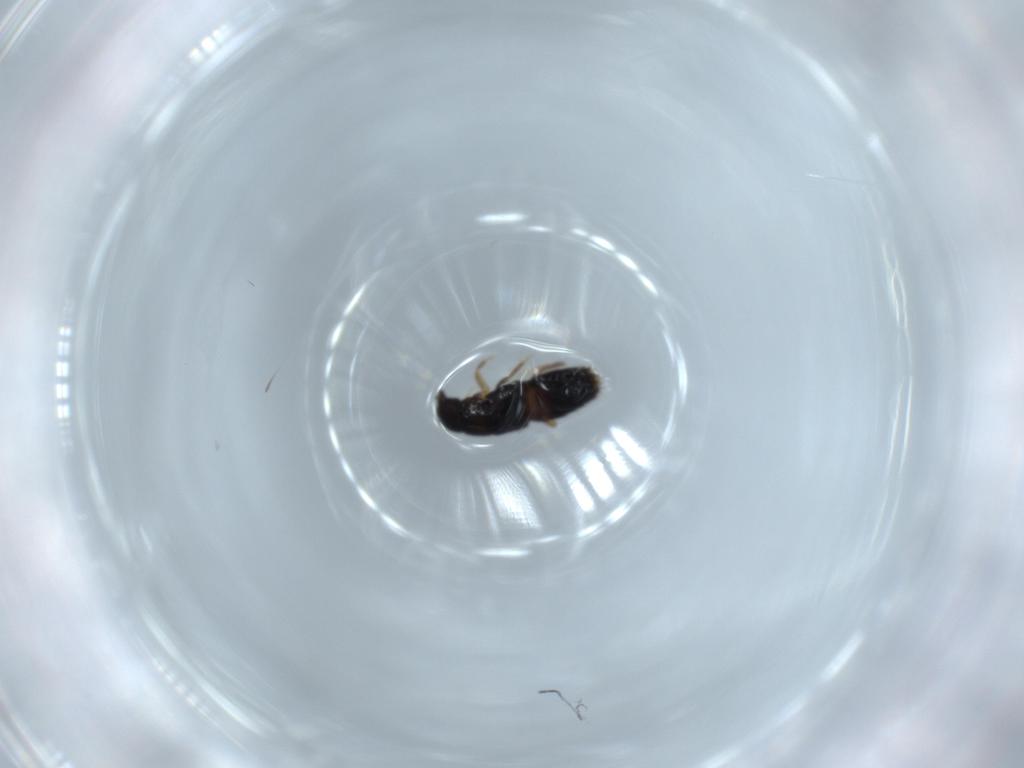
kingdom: Animalia
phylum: Arthropoda
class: Insecta
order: Coleoptera
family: Staphylinidae
